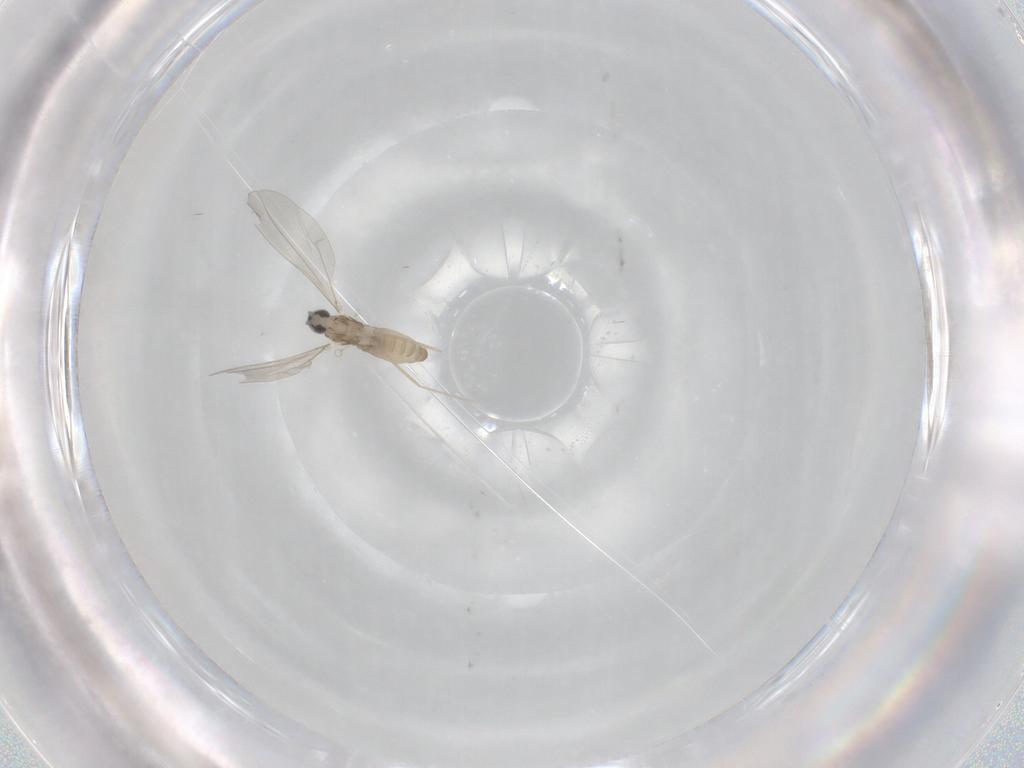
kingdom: Animalia
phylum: Arthropoda
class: Insecta
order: Diptera
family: Cecidomyiidae
